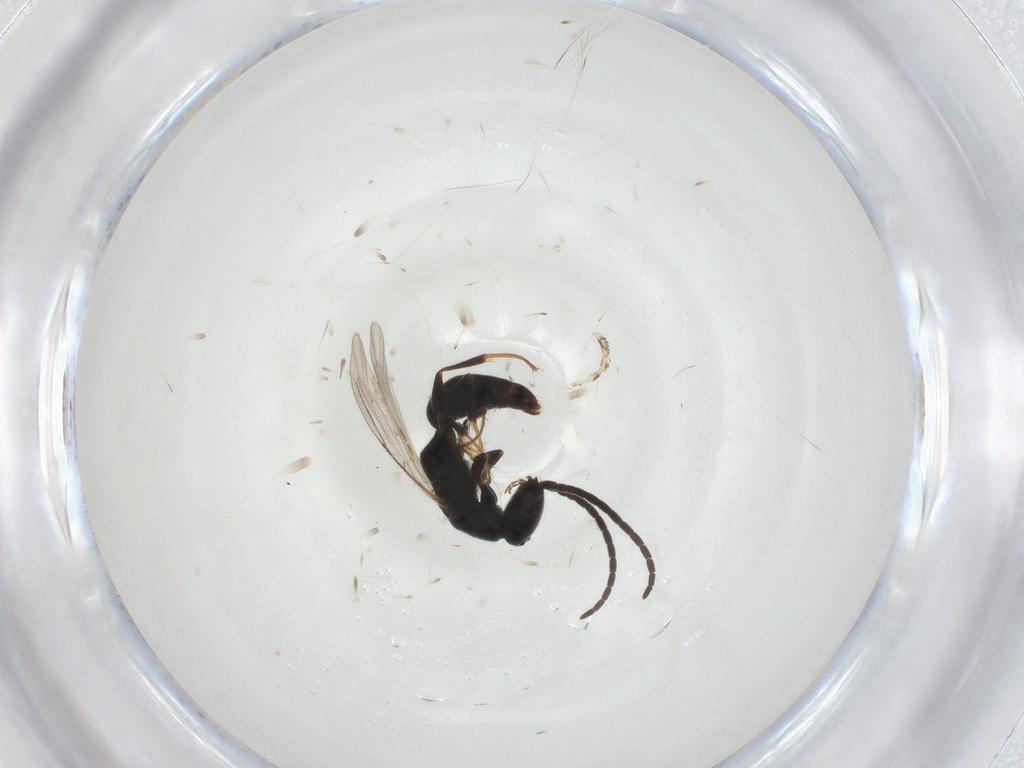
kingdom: Animalia
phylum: Arthropoda
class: Insecta
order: Hymenoptera
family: Bethylidae
